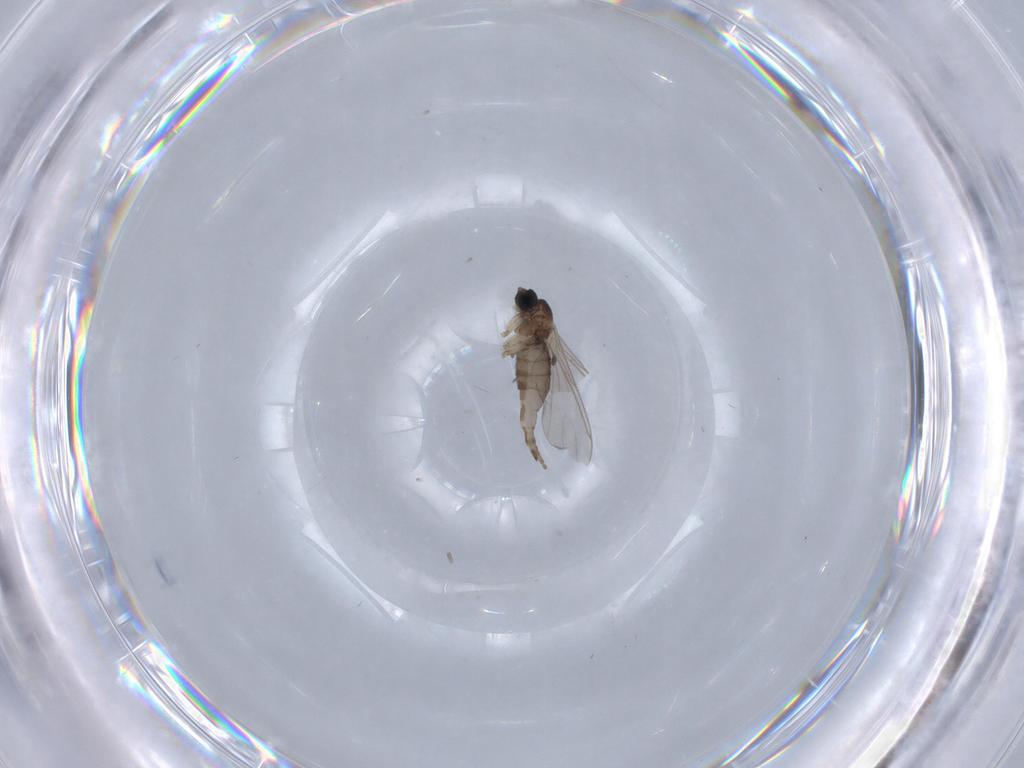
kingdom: Animalia
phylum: Arthropoda
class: Insecta
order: Diptera
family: Sciaridae
